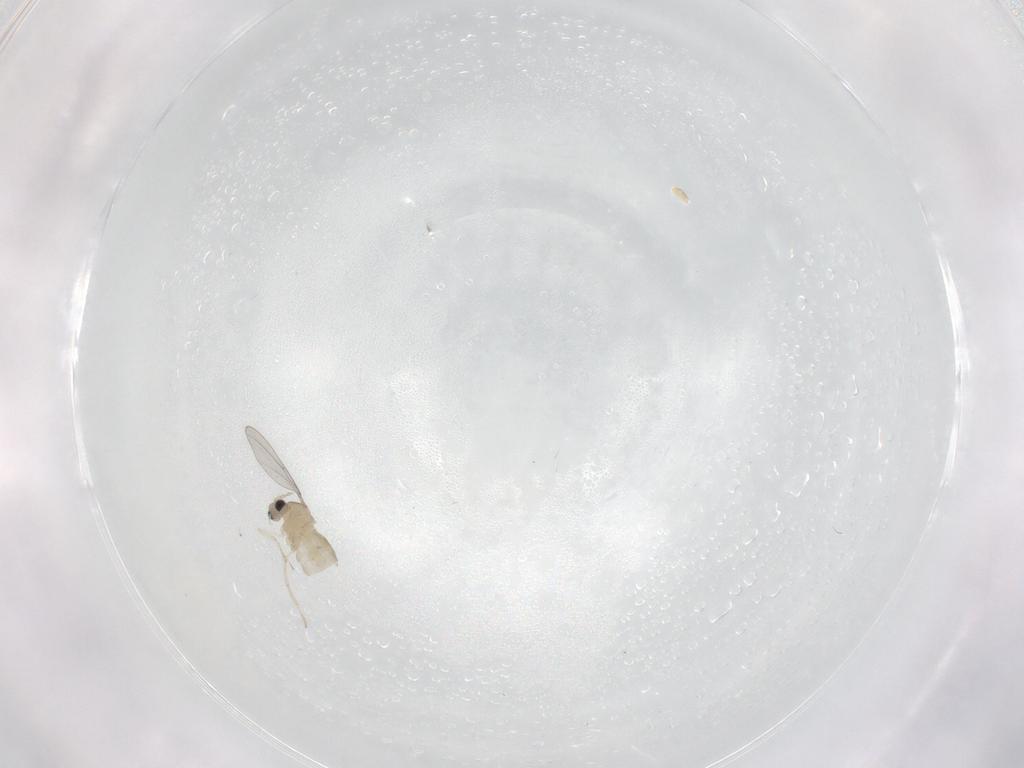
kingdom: Animalia
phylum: Arthropoda
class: Insecta
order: Diptera
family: Cecidomyiidae
